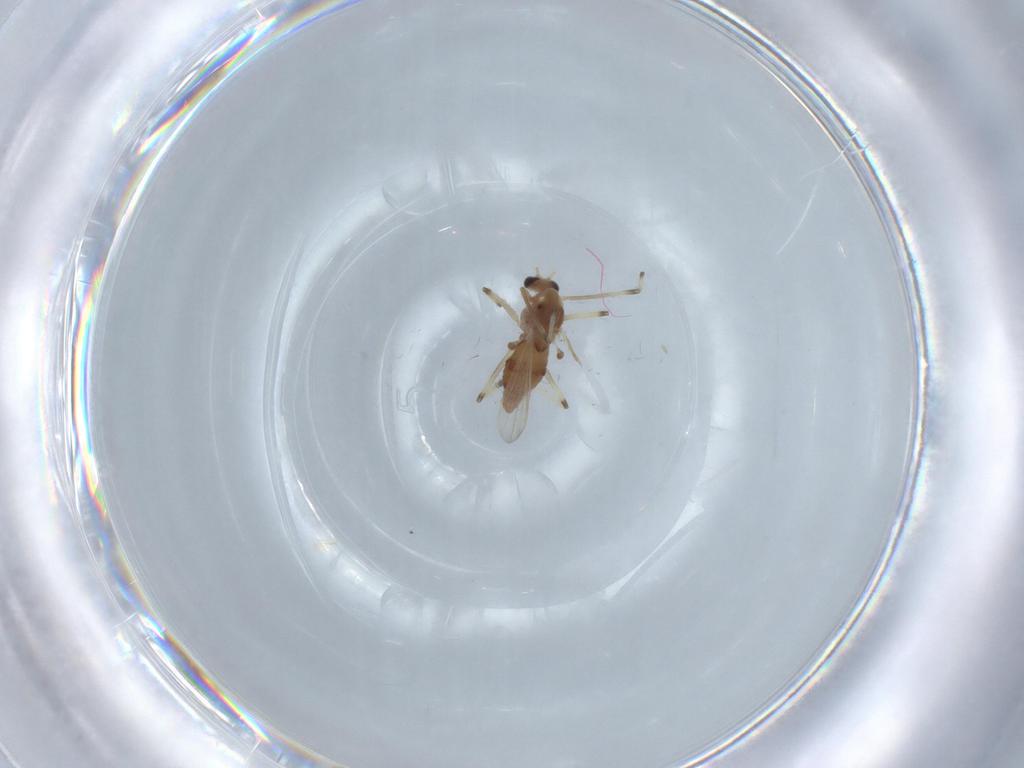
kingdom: Animalia
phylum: Arthropoda
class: Insecta
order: Diptera
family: Chironomidae
